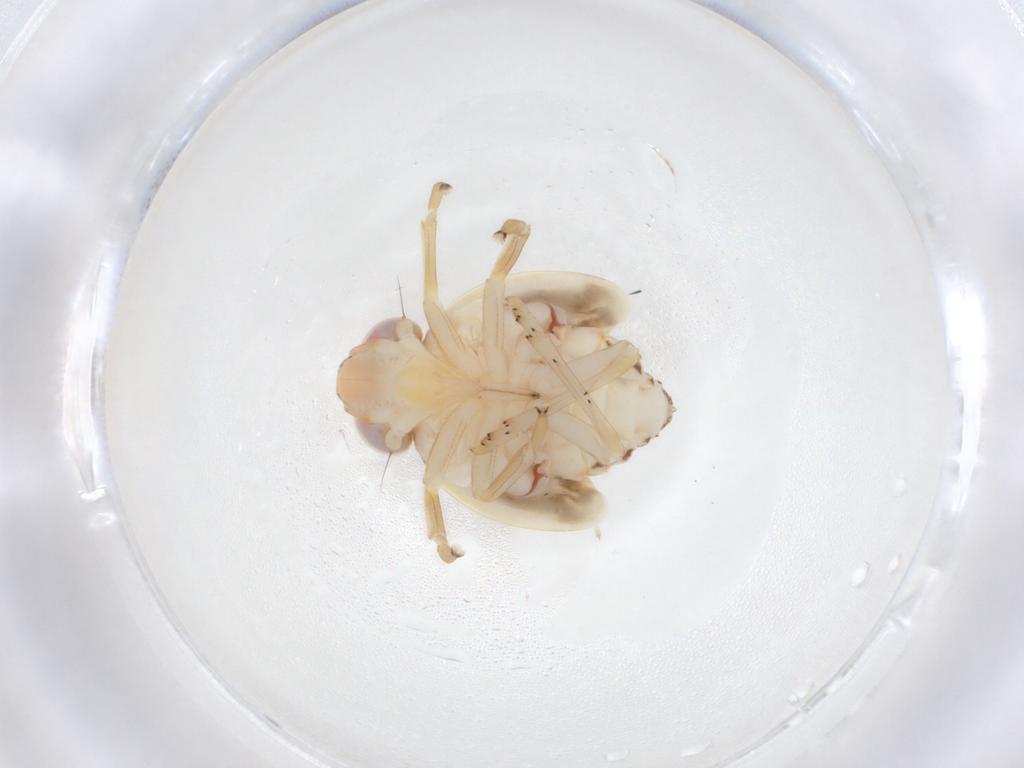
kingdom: Animalia
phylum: Arthropoda
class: Insecta
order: Hemiptera
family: Nogodinidae
